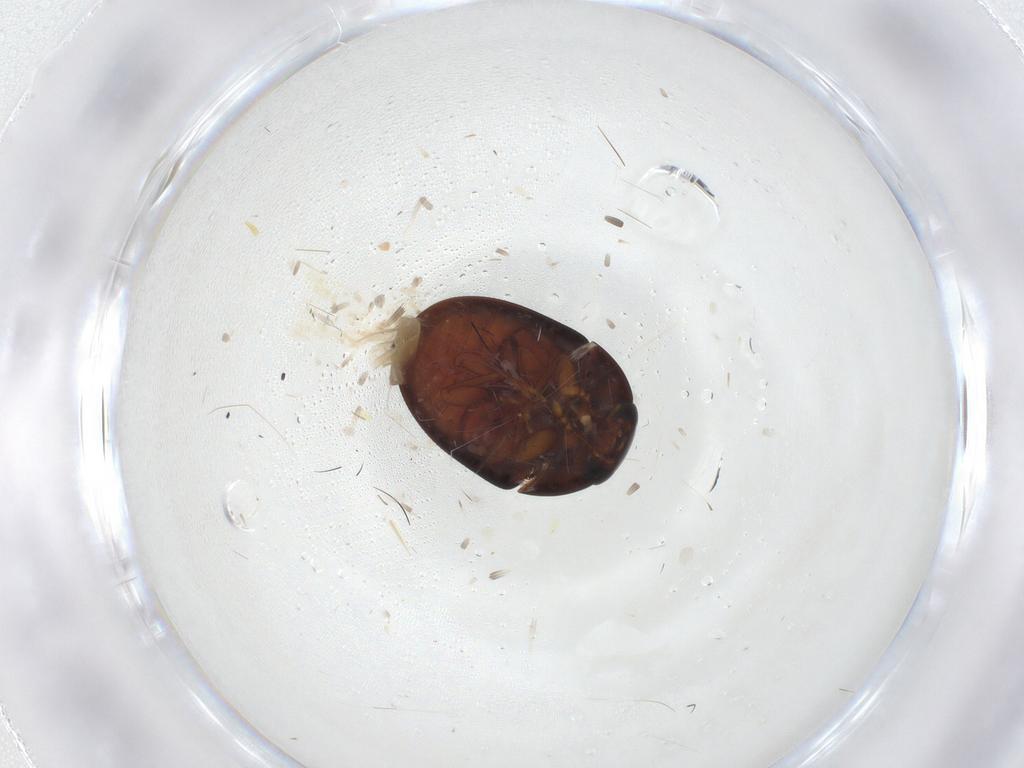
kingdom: Animalia
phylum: Arthropoda
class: Insecta
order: Coleoptera
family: Phalacridae
